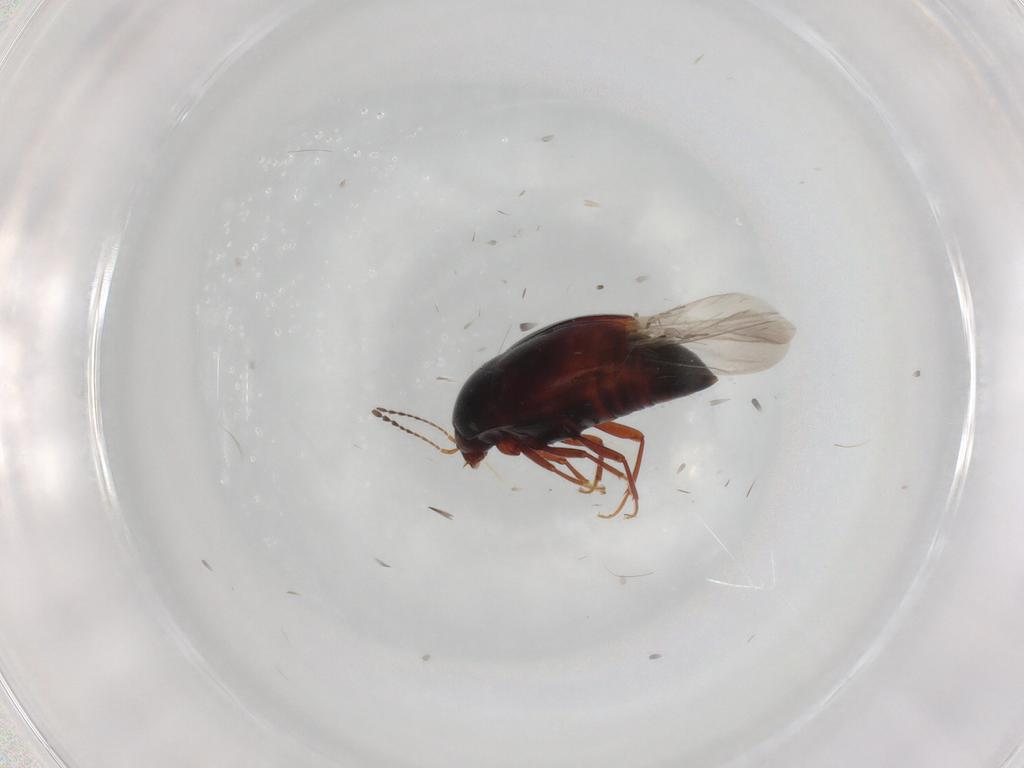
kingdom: Animalia
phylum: Arthropoda
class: Insecta
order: Coleoptera
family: Staphylinidae
